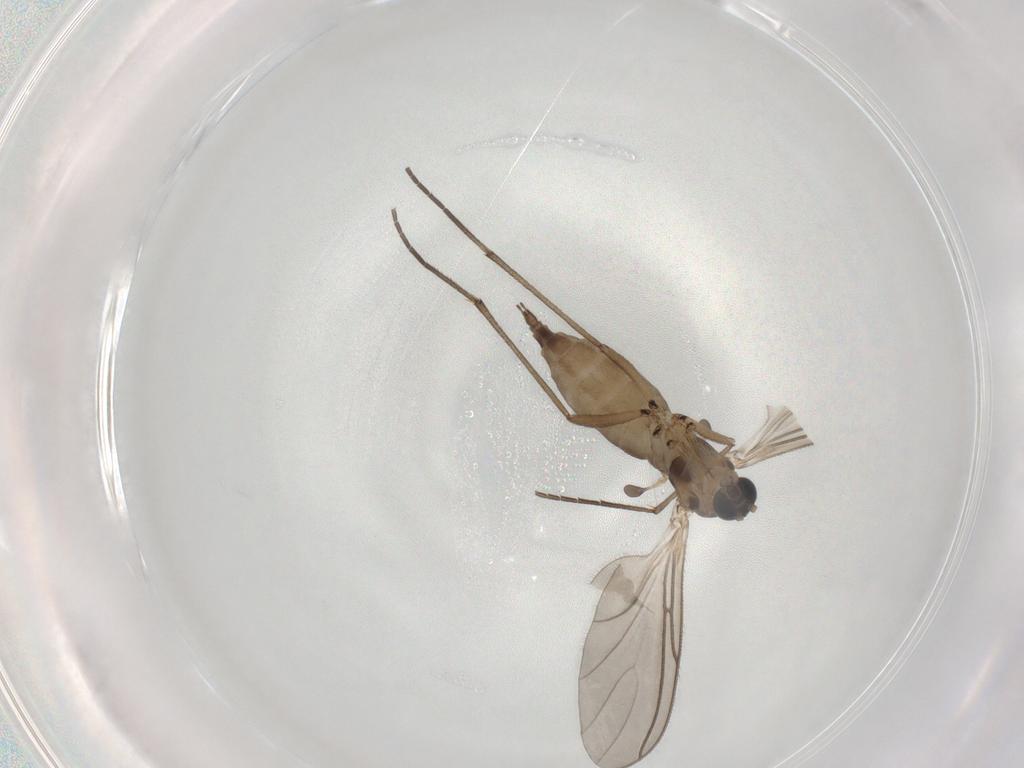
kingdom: Animalia
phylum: Arthropoda
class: Insecta
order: Diptera
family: Sciaridae
